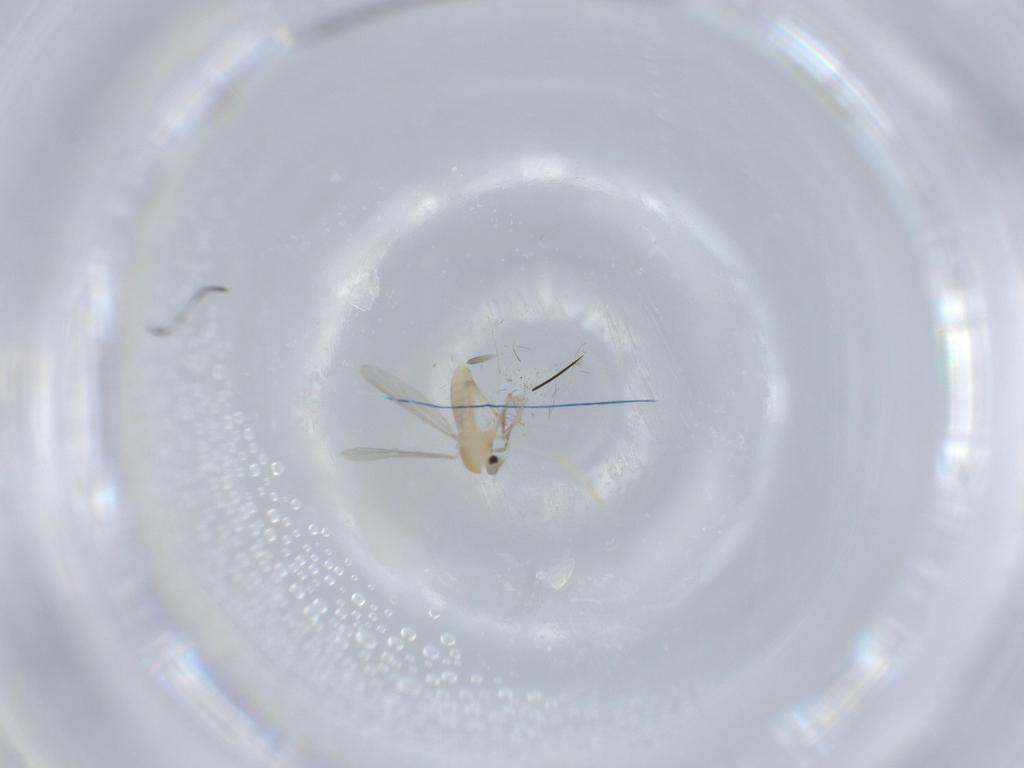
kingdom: Animalia
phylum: Arthropoda
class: Insecta
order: Diptera
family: Chironomidae
